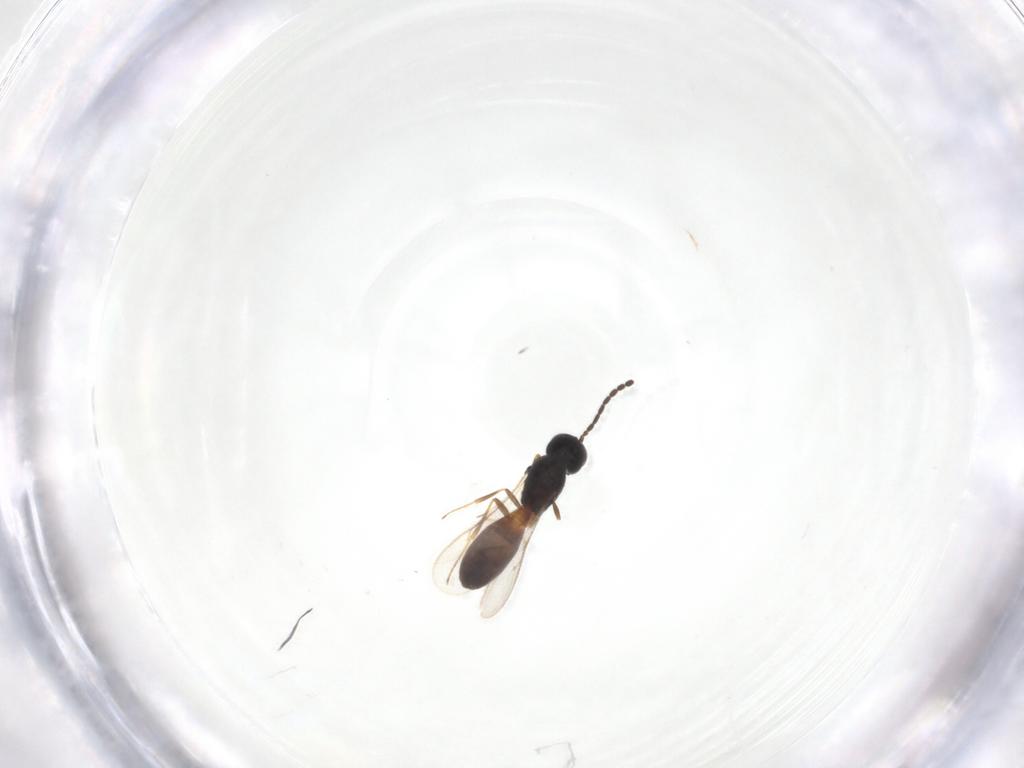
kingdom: Animalia
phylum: Arthropoda
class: Insecta
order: Hymenoptera
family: Scelionidae
